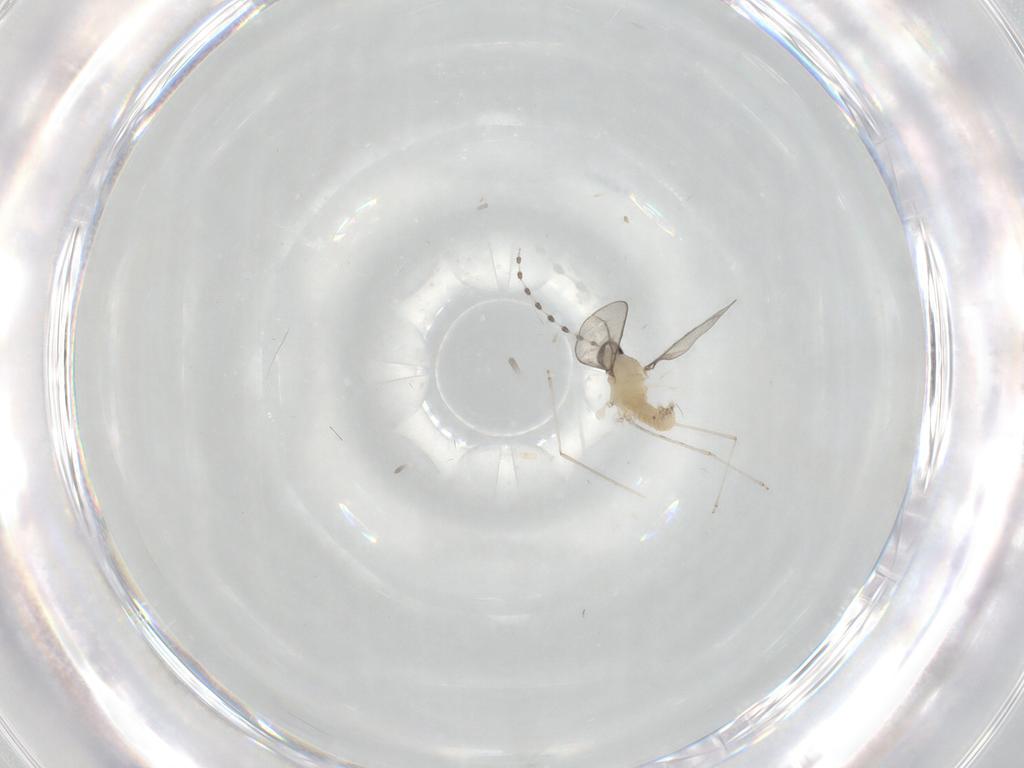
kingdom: Animalia
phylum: Arthropoda
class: Insecta
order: Diptera
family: Cecidomyiidae
